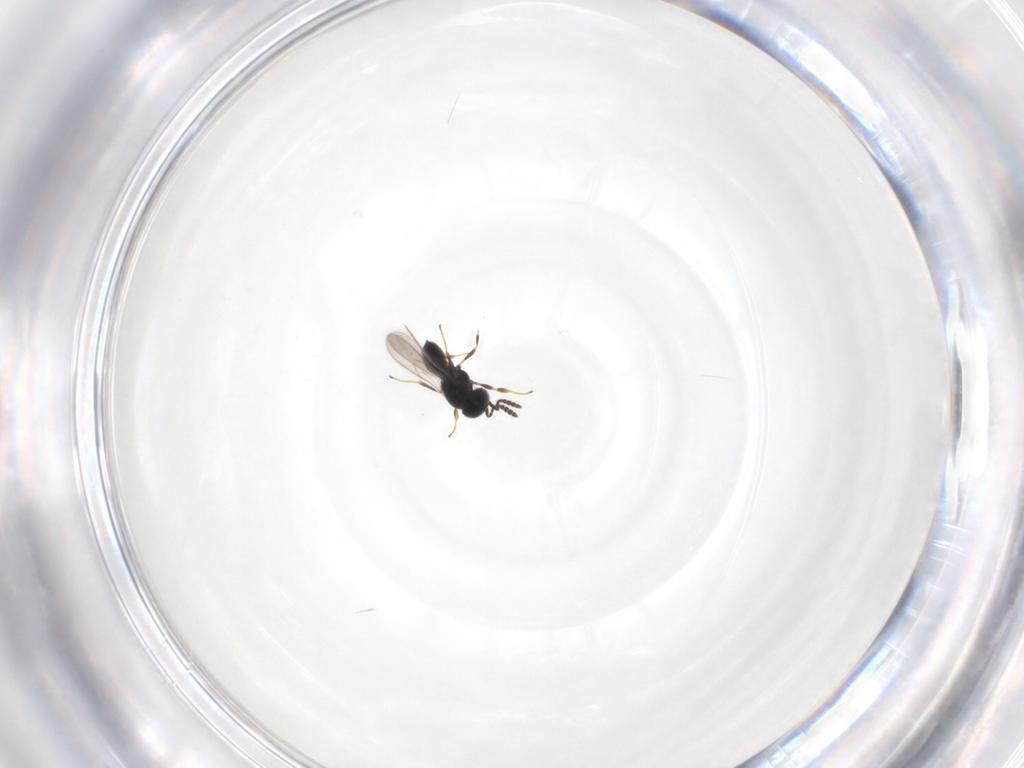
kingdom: Animalia
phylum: Arthropoda
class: Insecta
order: Hymenoptera
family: Scelionidae
